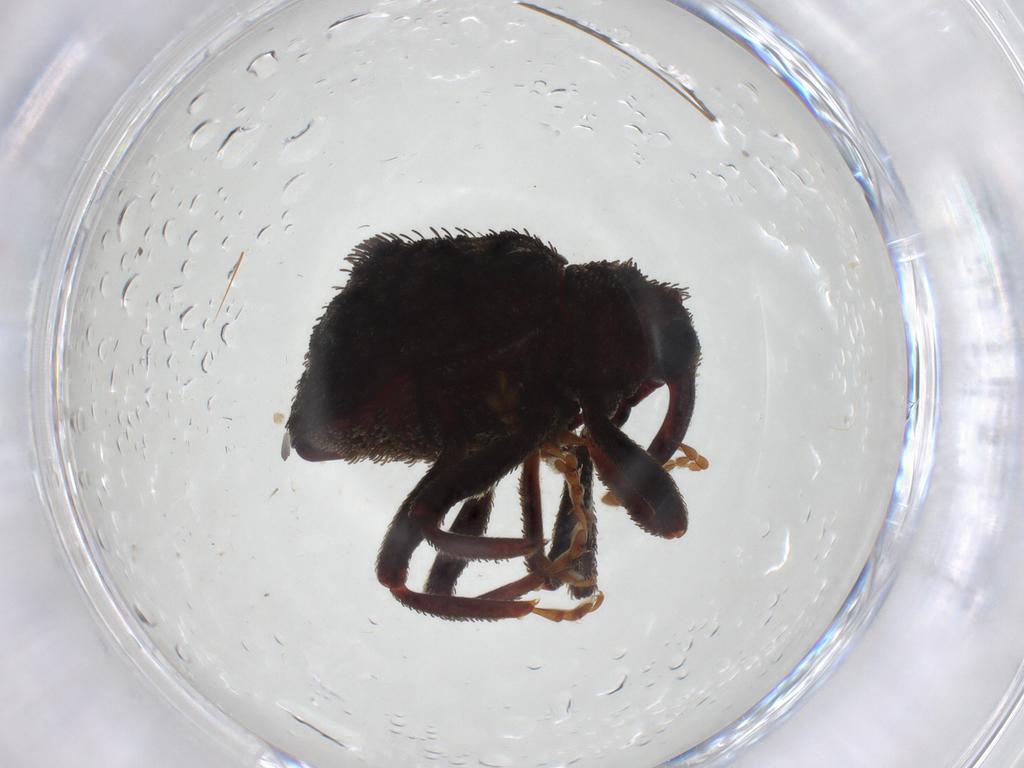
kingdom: Animalia
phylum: Arthropoda
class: Insecta
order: Coleoptera
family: Curculionidae
